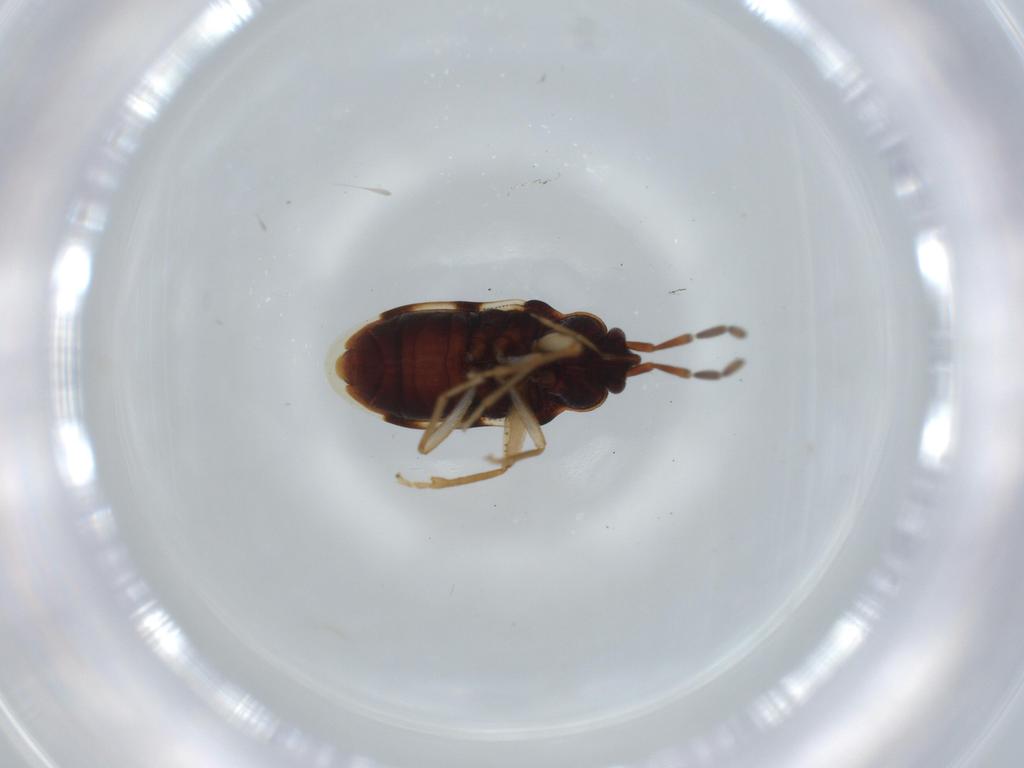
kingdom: Animalia
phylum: Arthropoda
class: Insecta
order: Hemiptera
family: Rhyparochromidae
